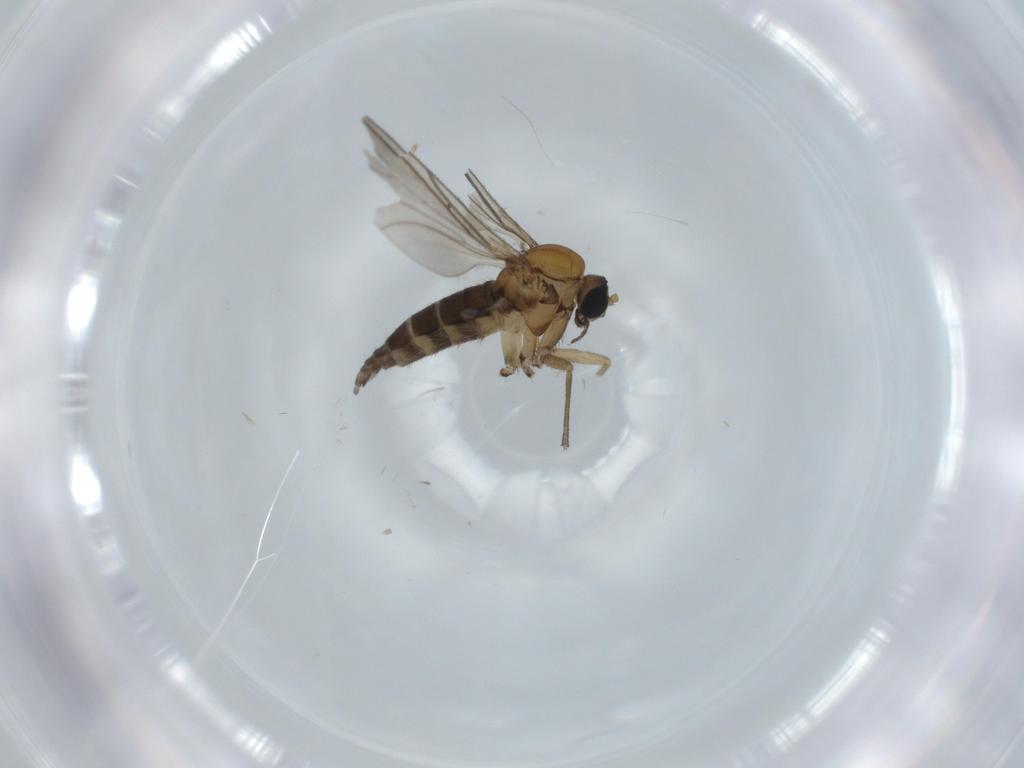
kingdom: Animalia
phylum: Arthropoda
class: Insecta
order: Diptera
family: Sciaridae
